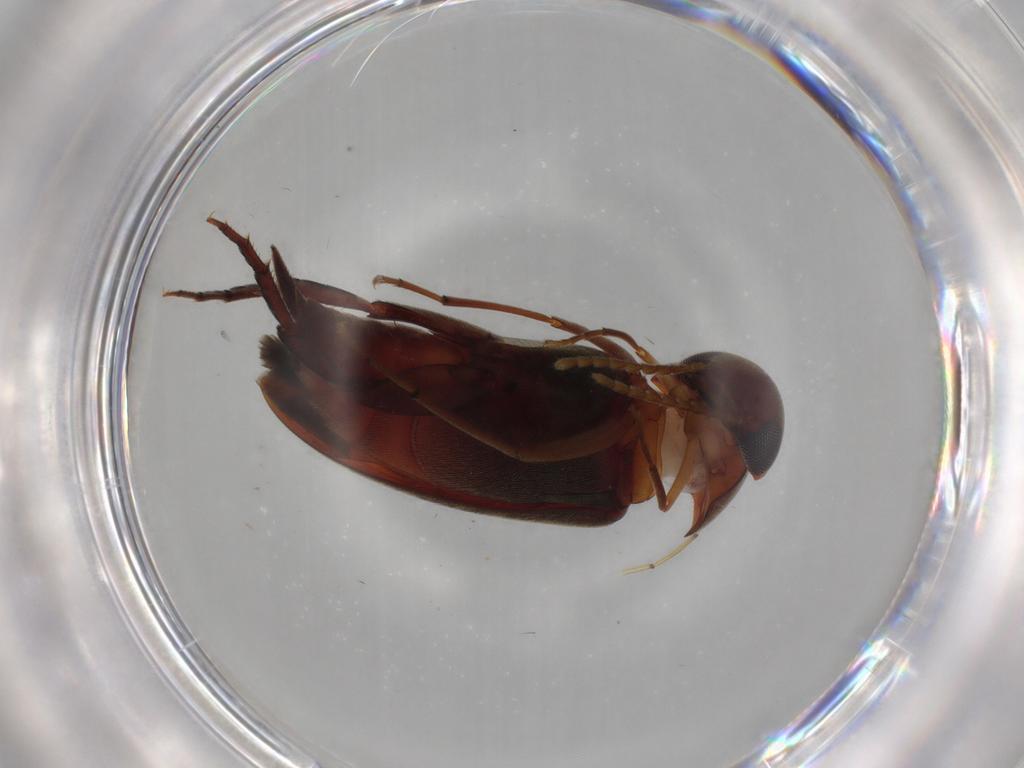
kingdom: Animalia
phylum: Arthropoda
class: Insecta
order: Coleoptera
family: Mordellidae
